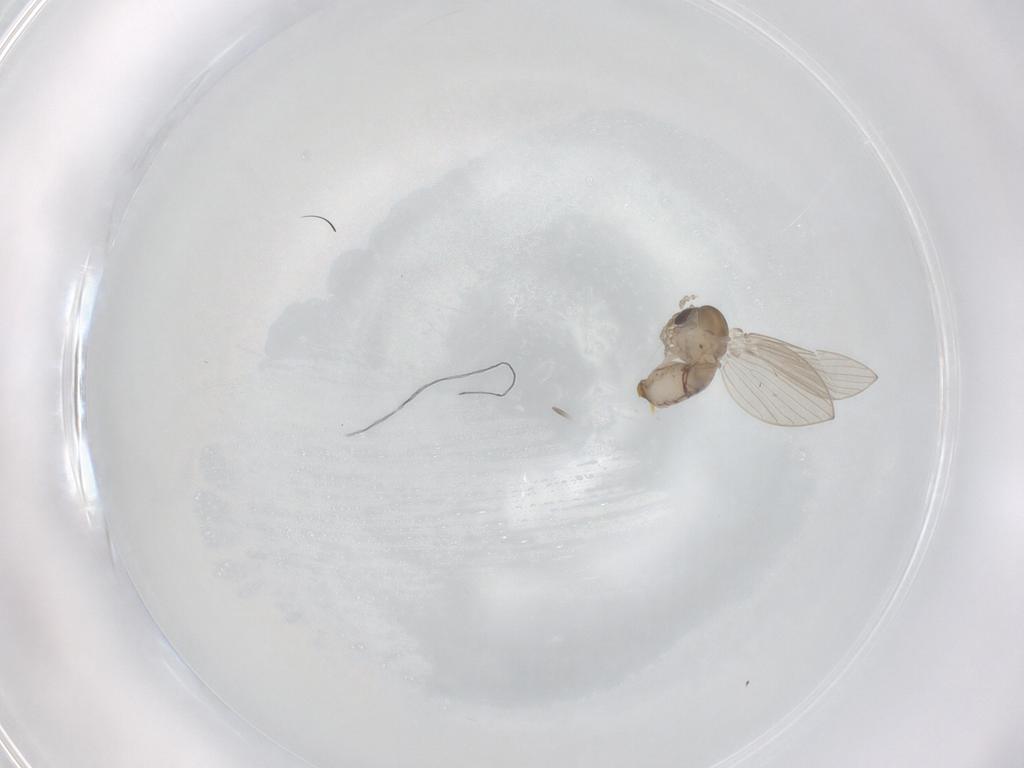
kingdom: Animalia
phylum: Arthropoda
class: Insecta
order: Diptera
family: Psychodidae
